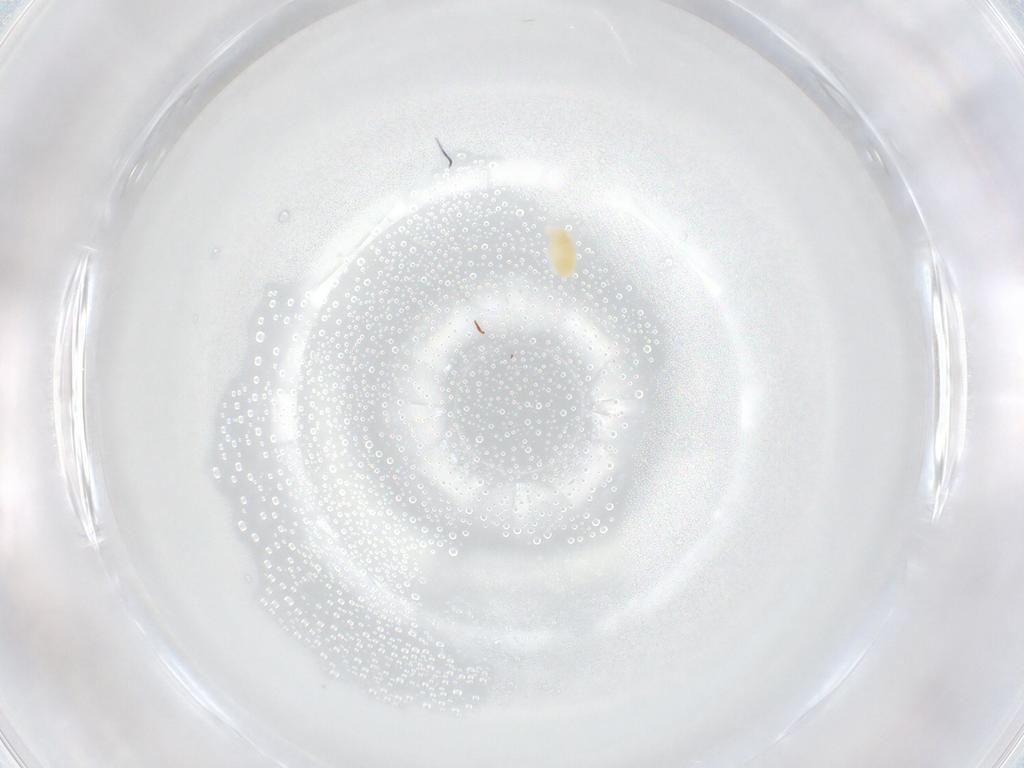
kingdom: Animalia
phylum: Arthropoda
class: Arachnida
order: Trombidiformes
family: Eupodidae
